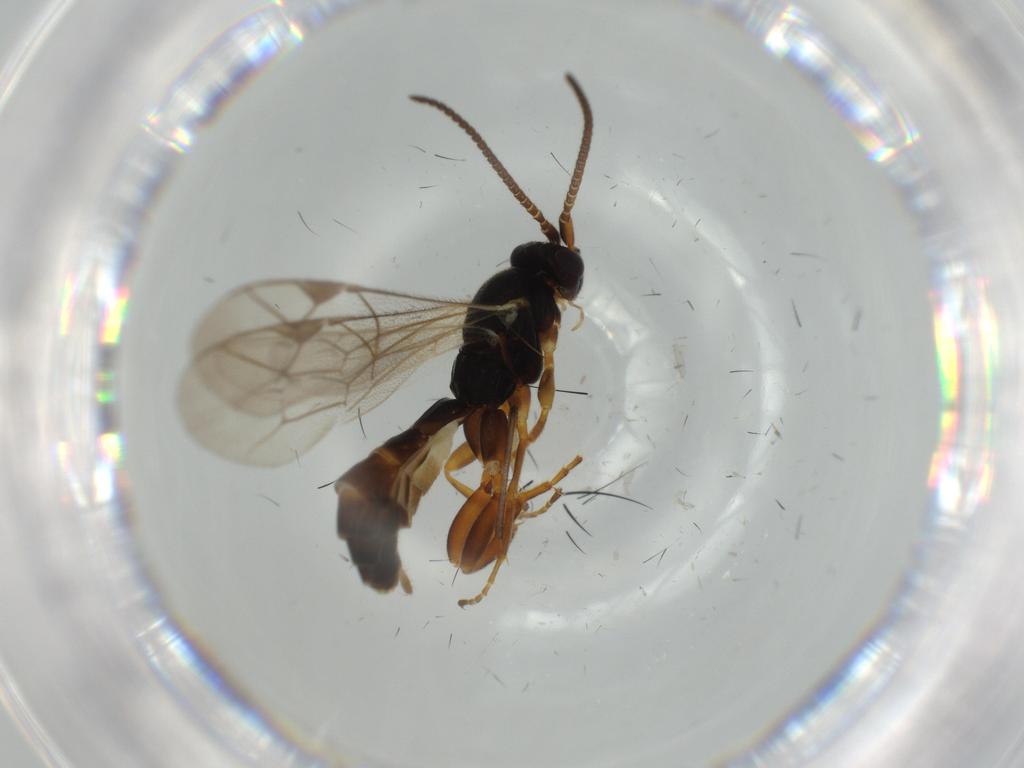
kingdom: Animalia
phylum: Arthropoda
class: Insecta
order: Hymenoptera
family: Ichneumonidae
